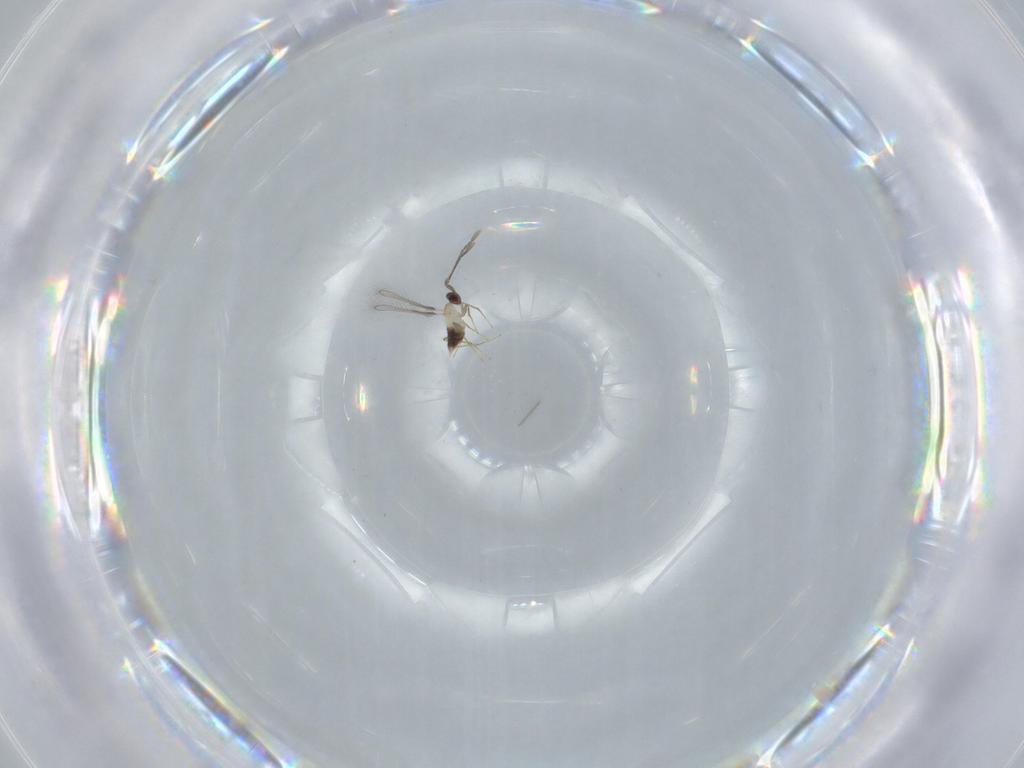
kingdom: Animalia
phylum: Arthropoda
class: Insecta
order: Hymenoptera
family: Mymaridae
